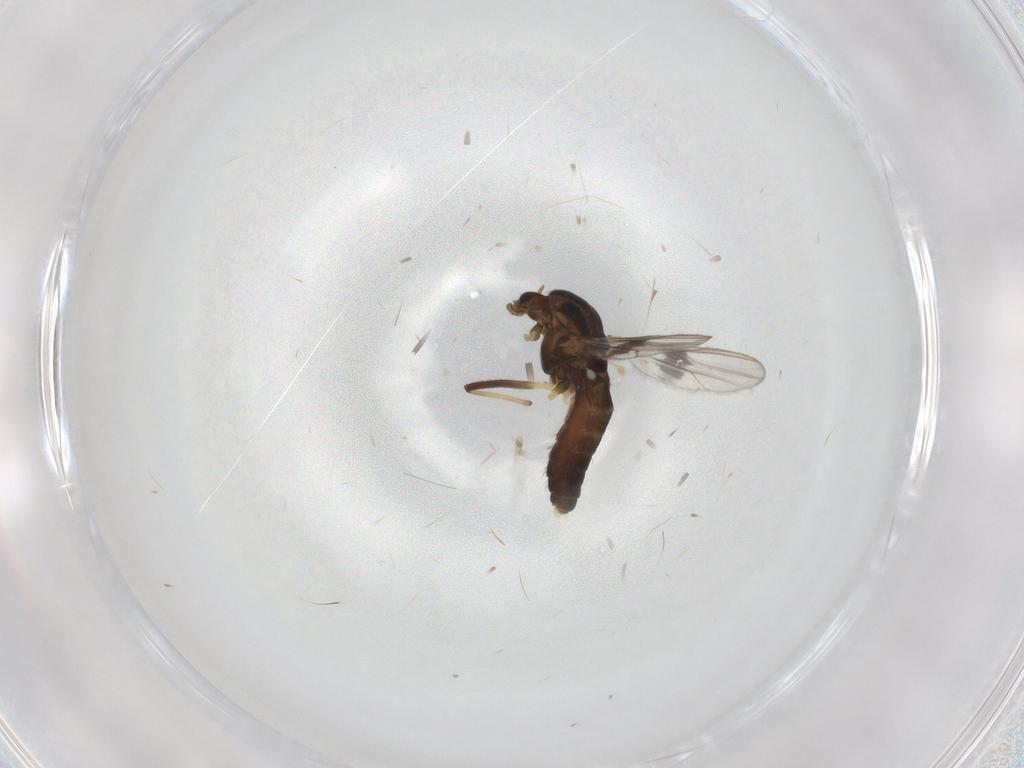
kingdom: Animalia
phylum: Arthropoda
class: Insecta
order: Diptera
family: Chironomidae
